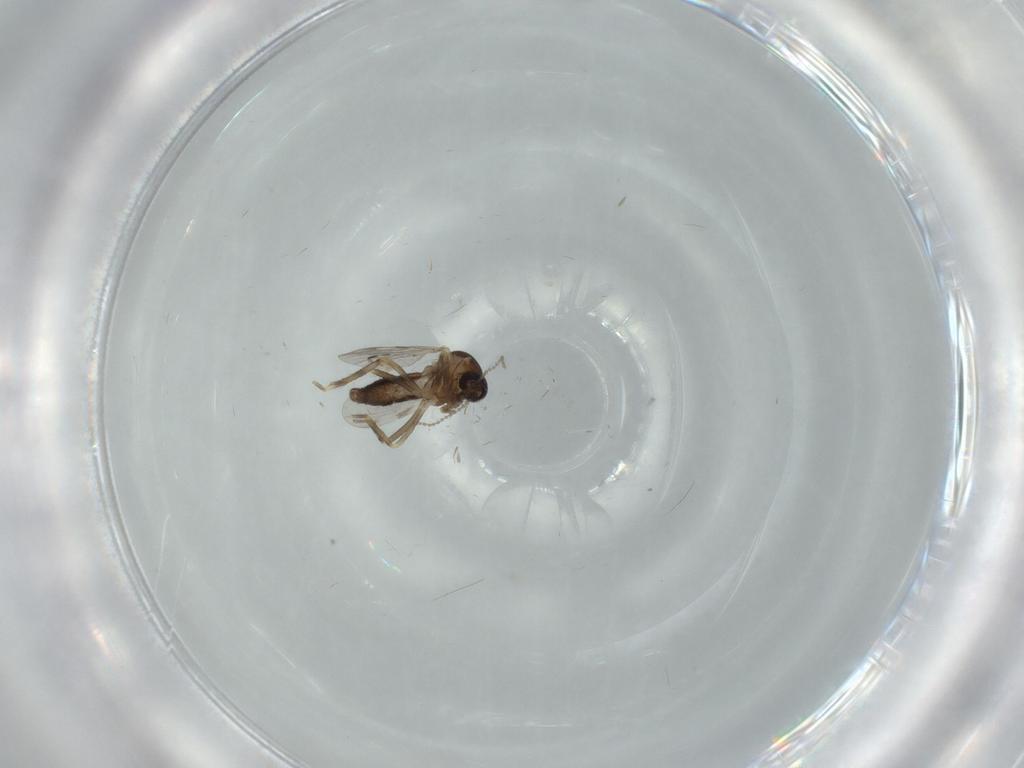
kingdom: Animalia
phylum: Arthropoda
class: Insecta
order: Diptera
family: Ceratopogonidae
